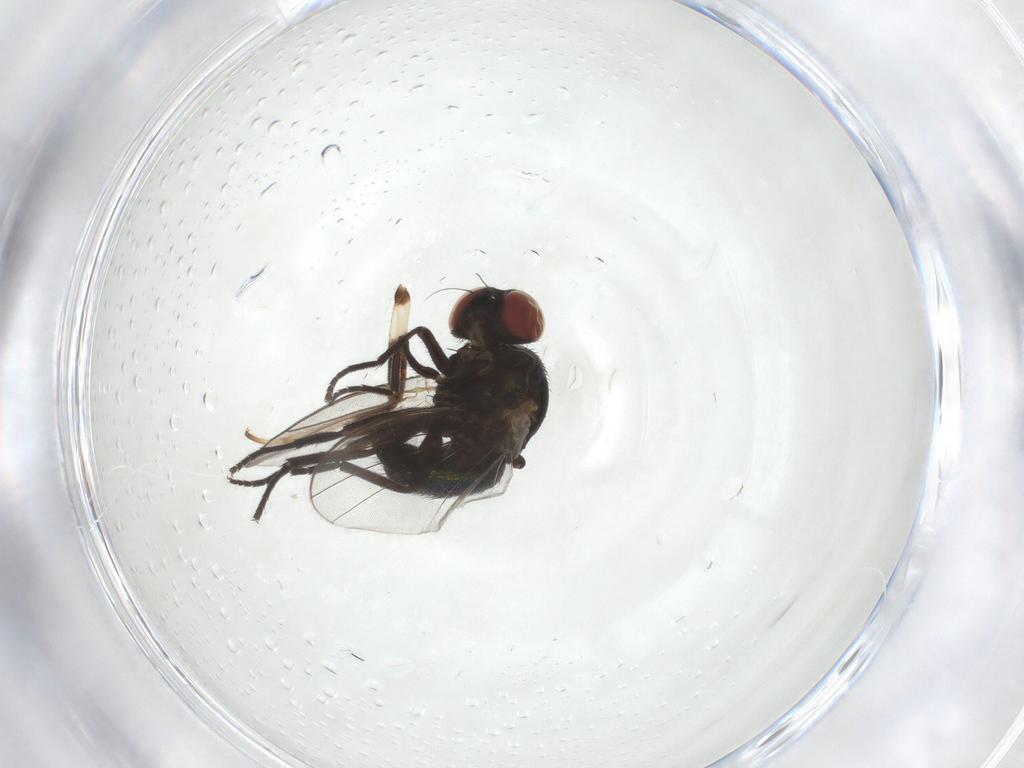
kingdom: Animalia
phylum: Arthropoda
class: Insecta
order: Diptera
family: Agromyzidae
